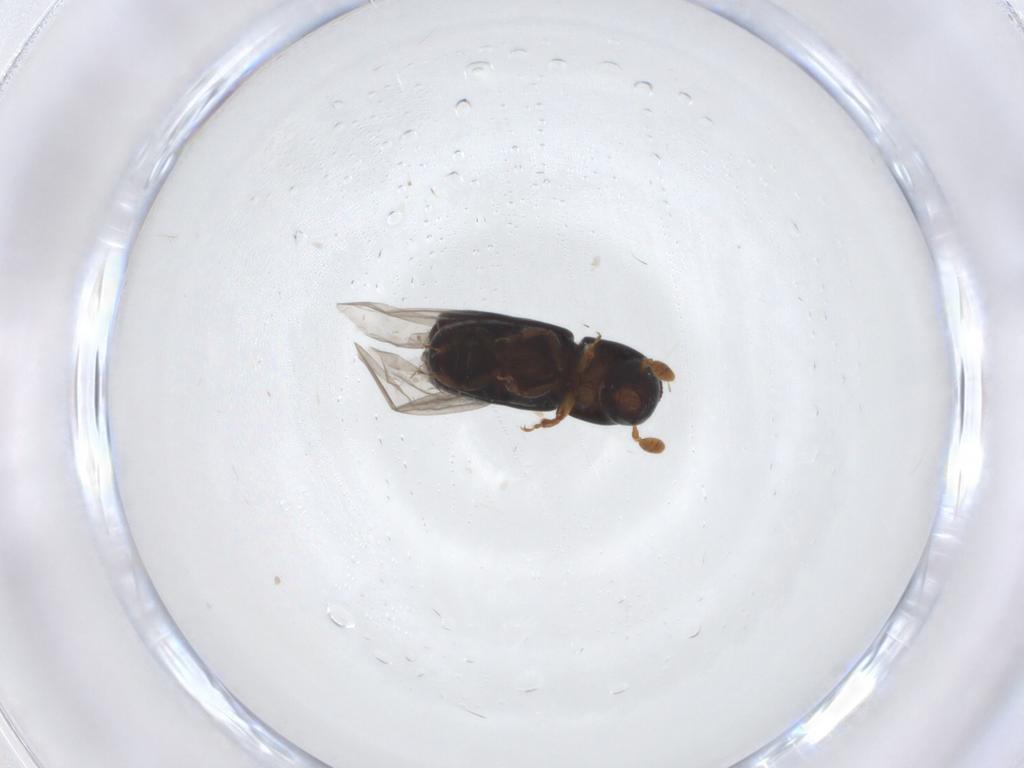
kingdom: Animalia
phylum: Arthropoda
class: Insecta
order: Coleoptera
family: Curculionidae
